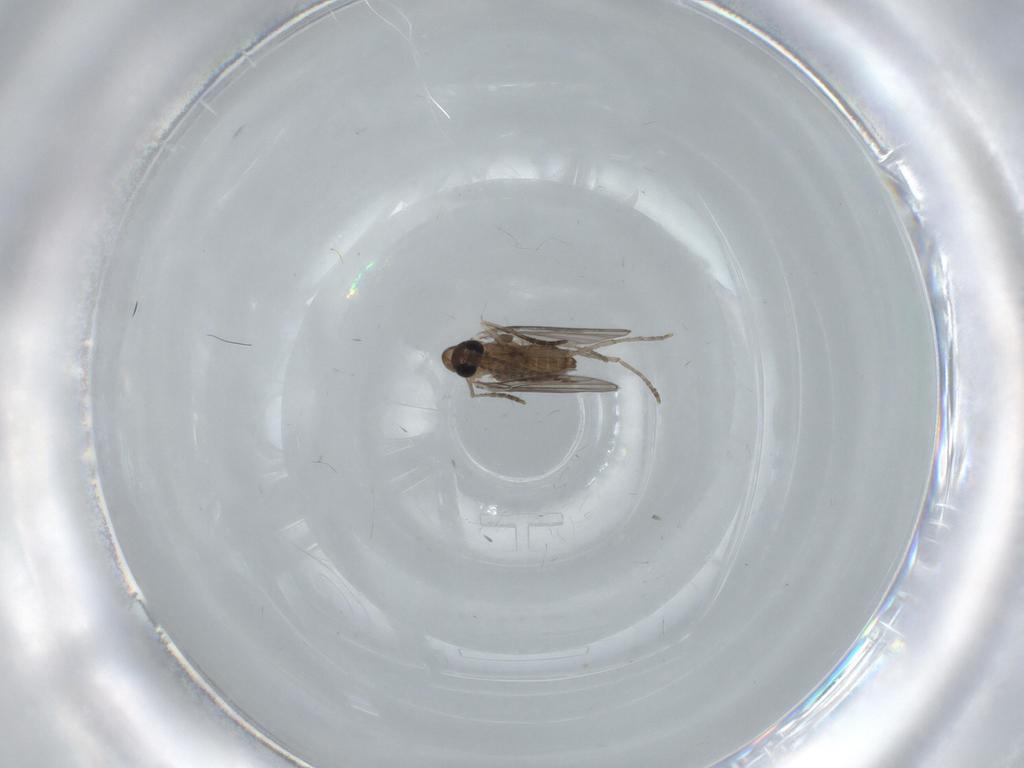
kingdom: Animalia
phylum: Arthropoda
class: Insecta
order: Diptera
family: Psychodidae
